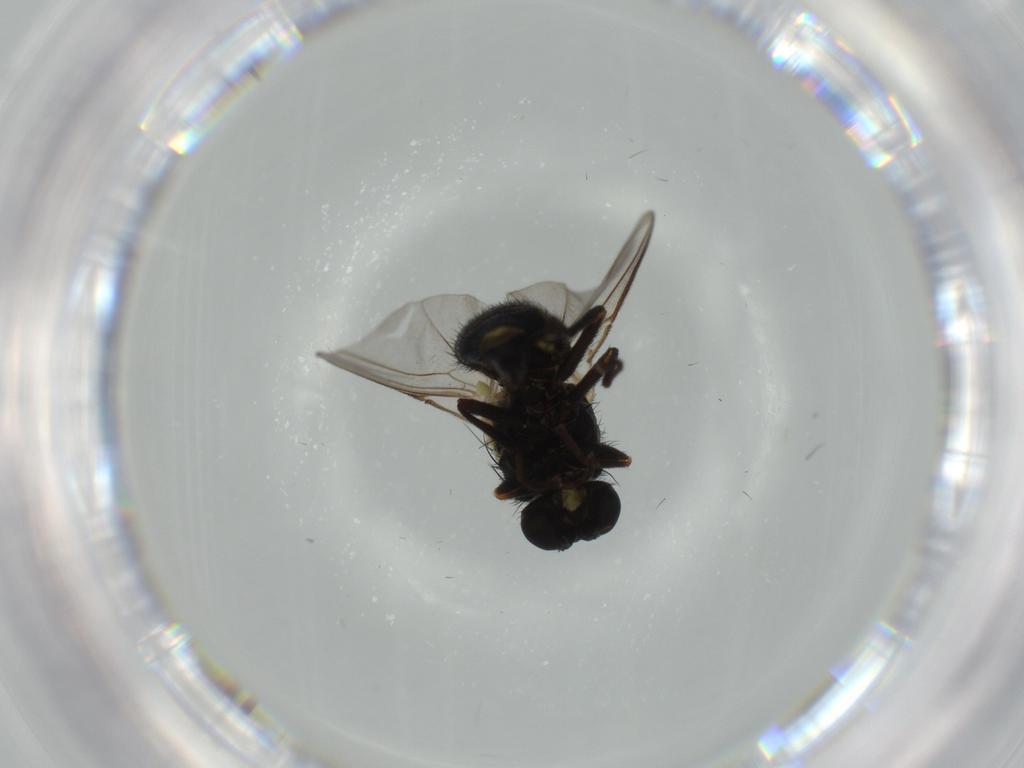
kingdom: Animalia
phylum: Arthropoda
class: Insecta
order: Diptera
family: Agromyzidae
